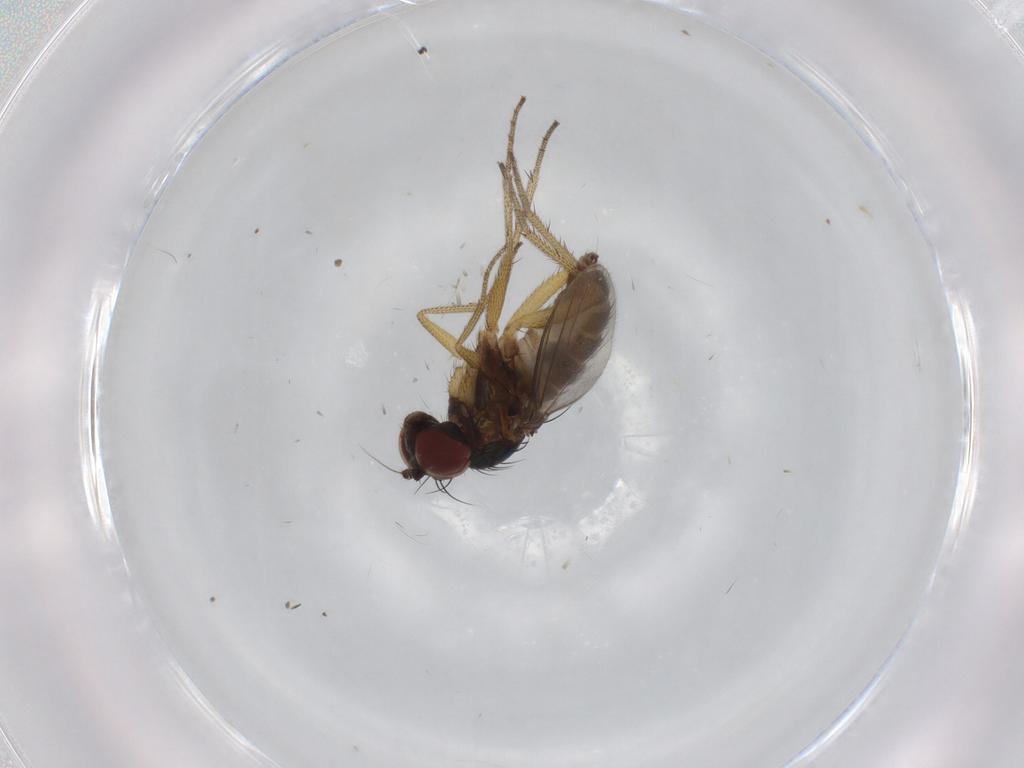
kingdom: Animalia
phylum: Arthropoda
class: Insecta
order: Diptera
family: Dolichopodidae
